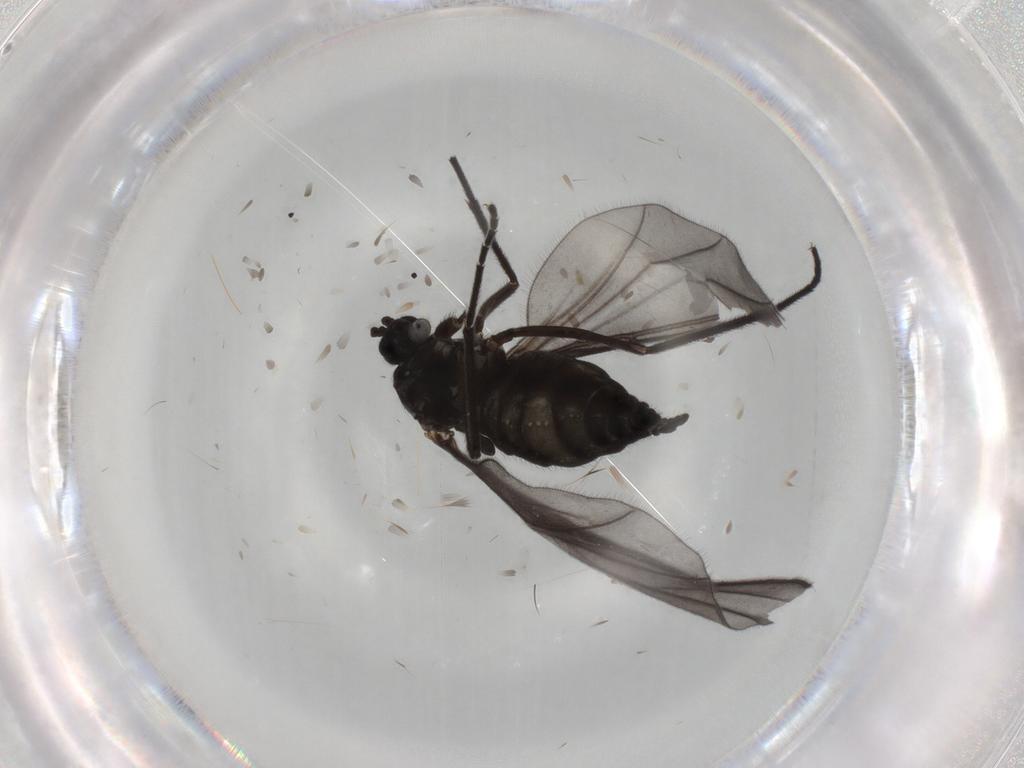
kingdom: Animalia
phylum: Arthropoda
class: Insecta
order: Diptera
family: Sciaridae
